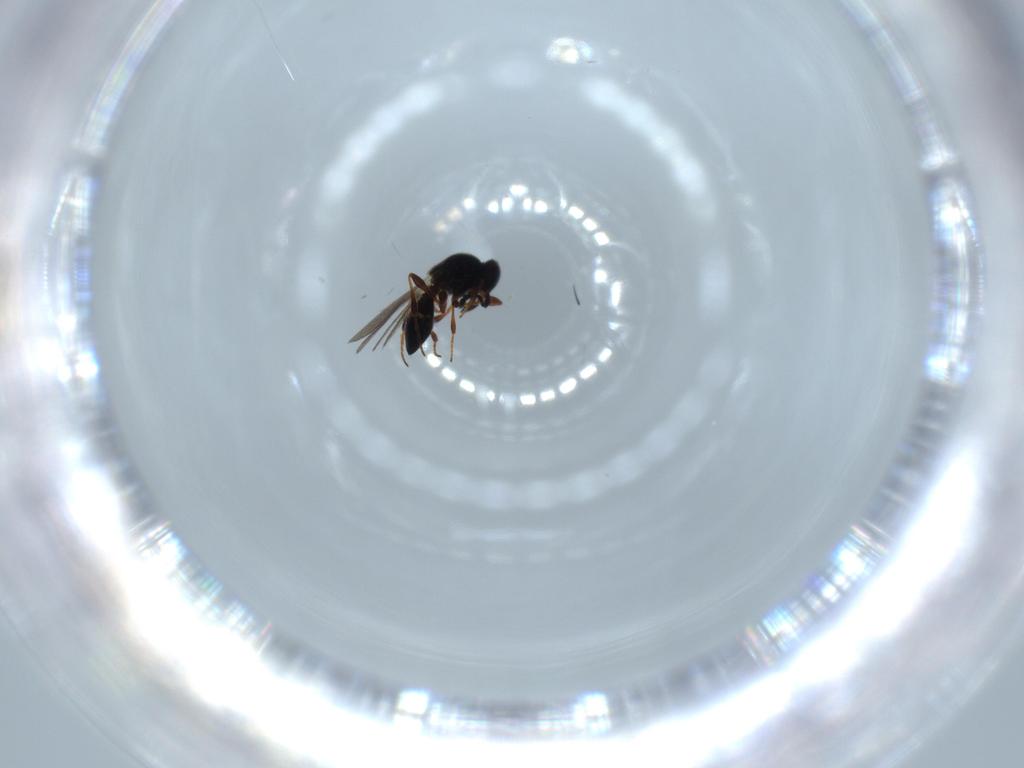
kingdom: Animalia
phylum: Arthropoda
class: Insecta
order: Hymenoptera
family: Platygastridae
